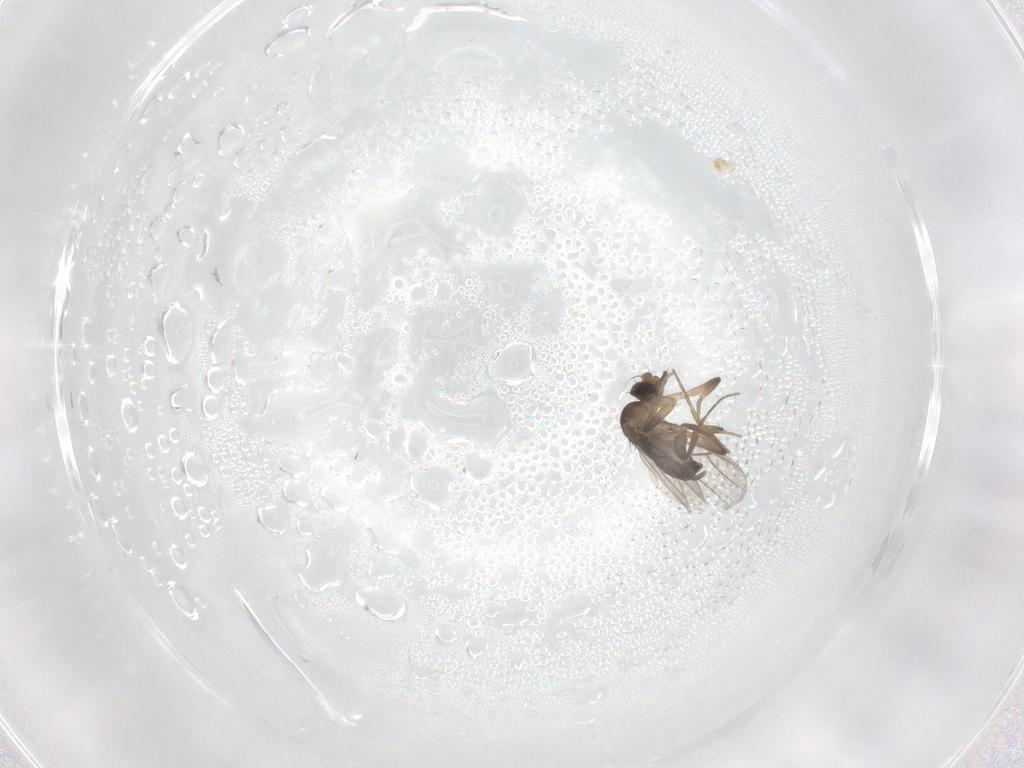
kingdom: Animalia
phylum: Arthropoda
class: Insecta
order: Diptera
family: Phoridae
